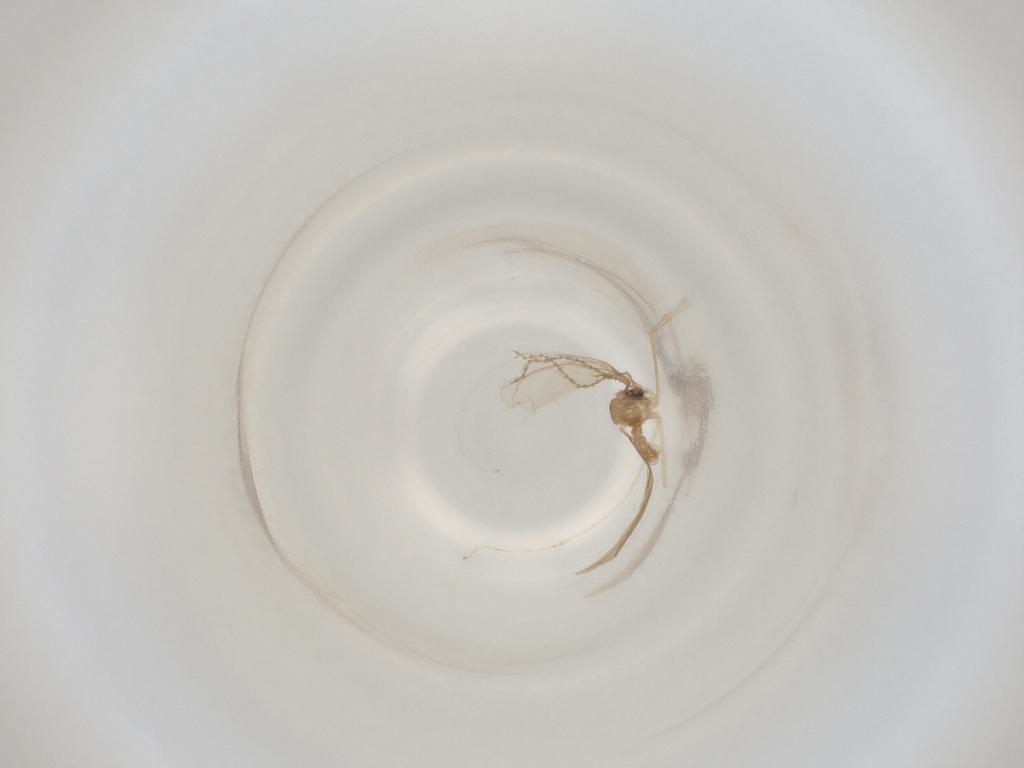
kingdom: Animalia
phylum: Arthropoda
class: Insecta
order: Diptera
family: Cecidomyiidae
